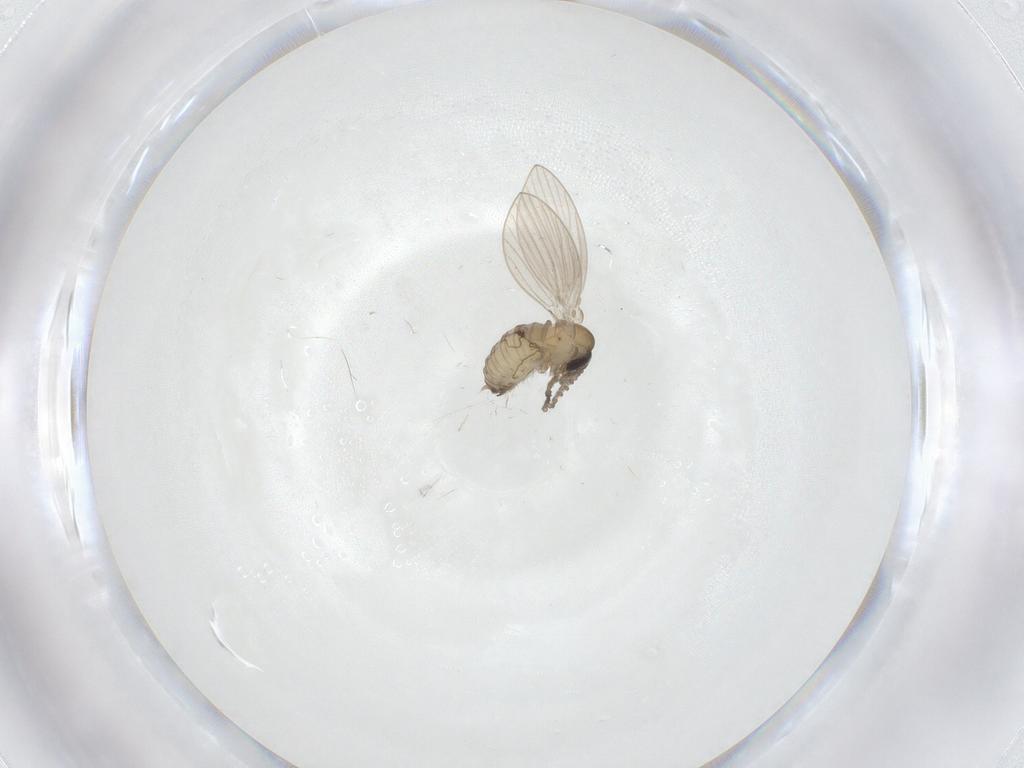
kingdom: Animalia
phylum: Arthropoda
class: Insecta
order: Diptera
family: Psychodidae
